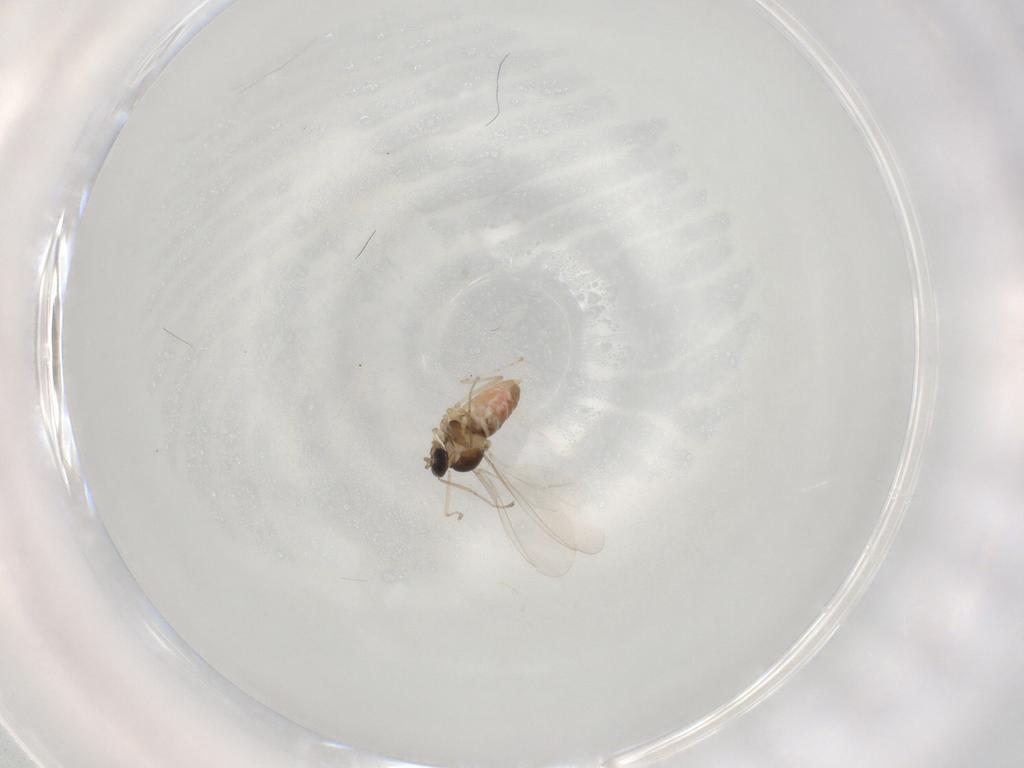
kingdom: Animalia
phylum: Arthropoda
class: Insecta
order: Diptera
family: Cecidomyiidae
